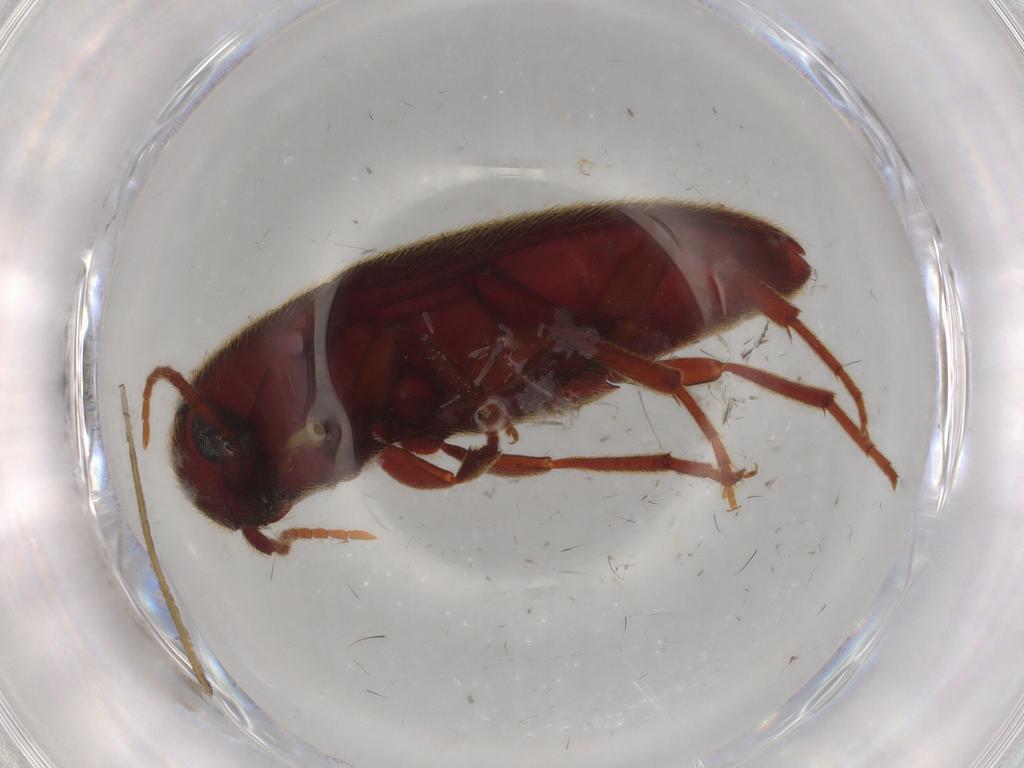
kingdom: Animalia
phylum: Arthropoda
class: Insecta
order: Coleoptera
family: Eucnemidae
